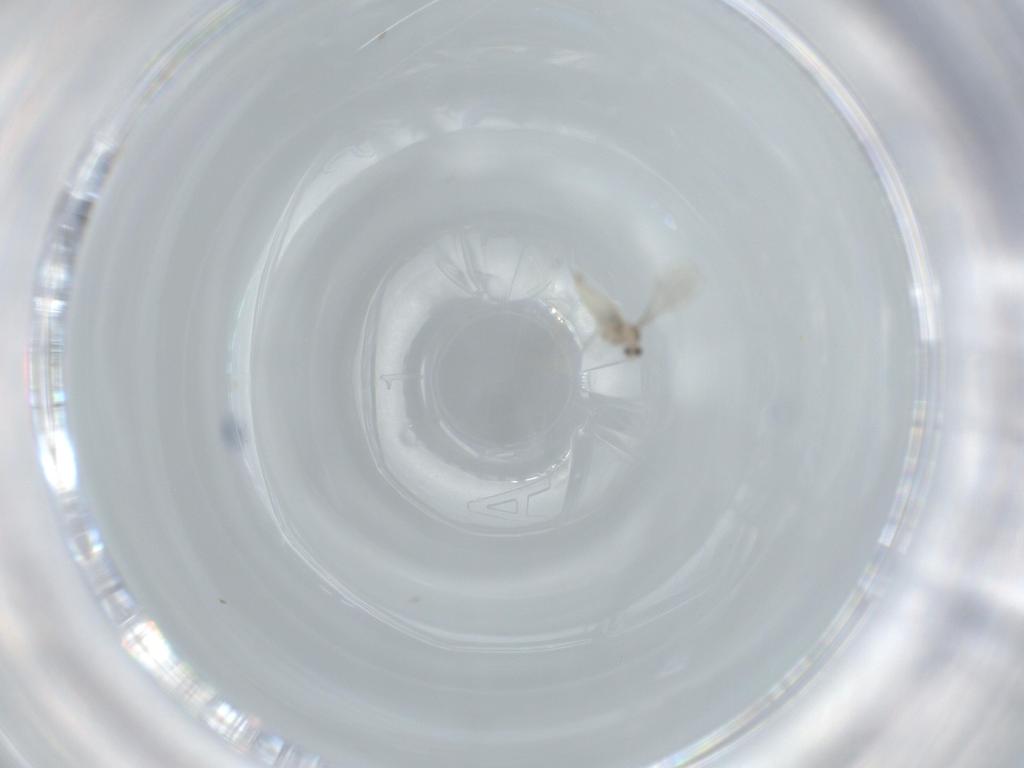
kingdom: Animalia
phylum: Arthropoda
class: Insecta
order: Diptera
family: Cecidomyiidae
